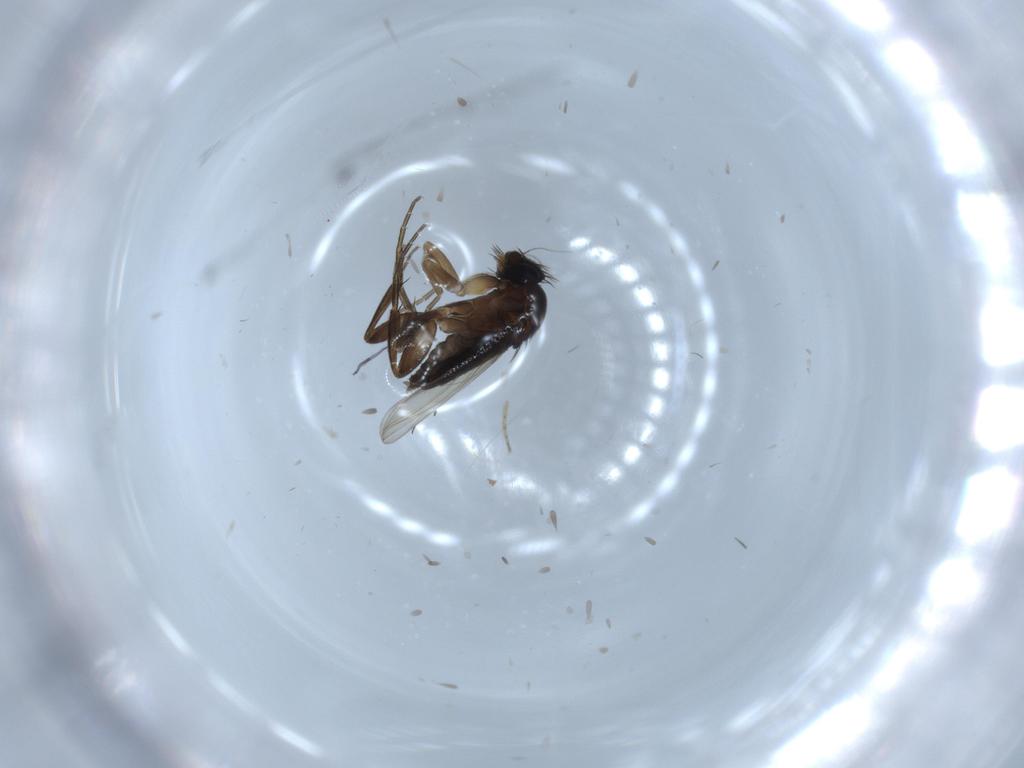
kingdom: Animalia
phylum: Arthropoda
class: Insecta
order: Diptera
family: Phoridae
